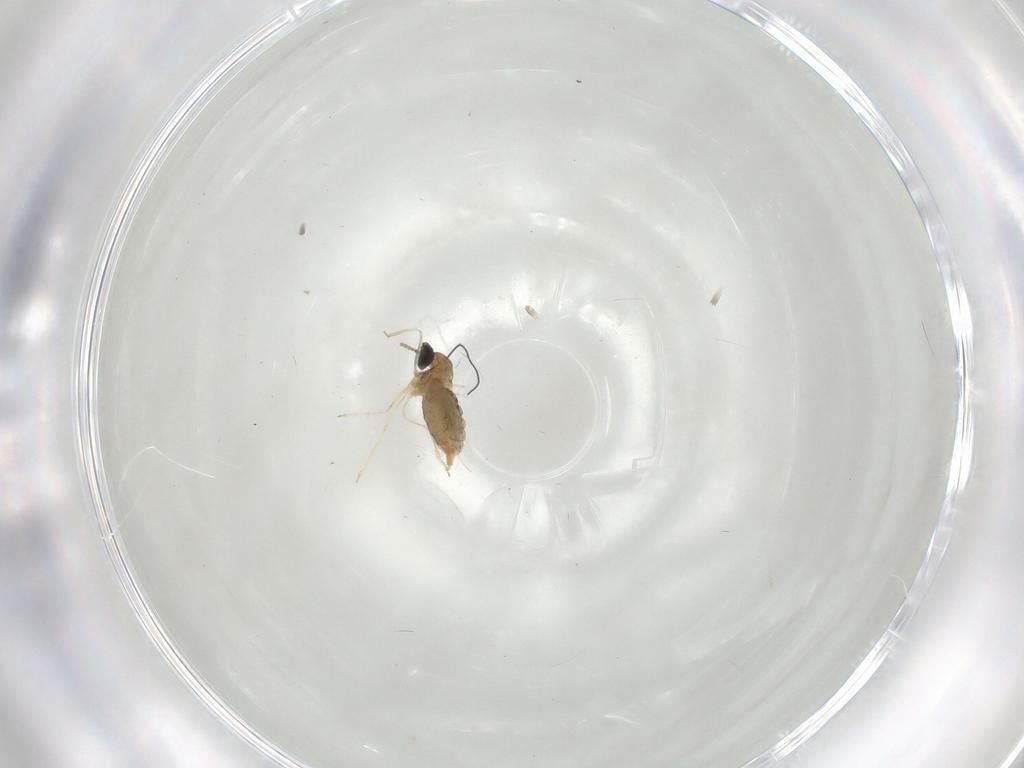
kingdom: Animalia
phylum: Arthropoda
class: Insecta
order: Diptera
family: Cecidomyiidae
